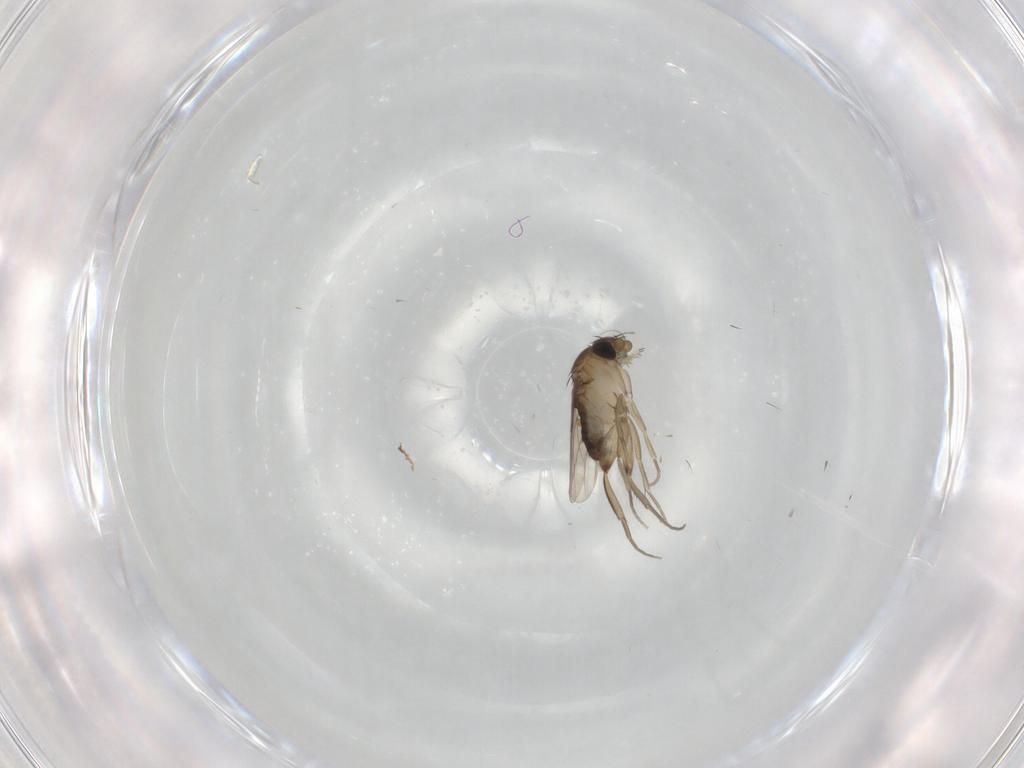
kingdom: Animalia
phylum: Arthropoda
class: Insecta
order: Diptera
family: Phoridae
